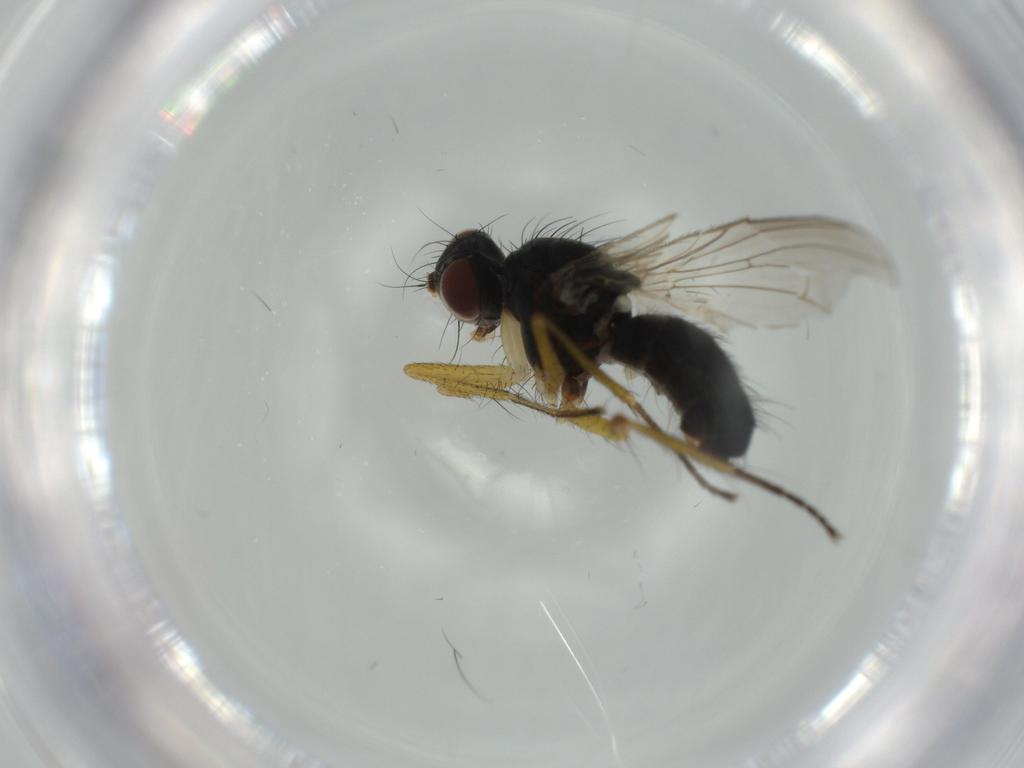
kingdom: Animalia
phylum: Arthropoda
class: Insecta
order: Diptera
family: Muscidae
